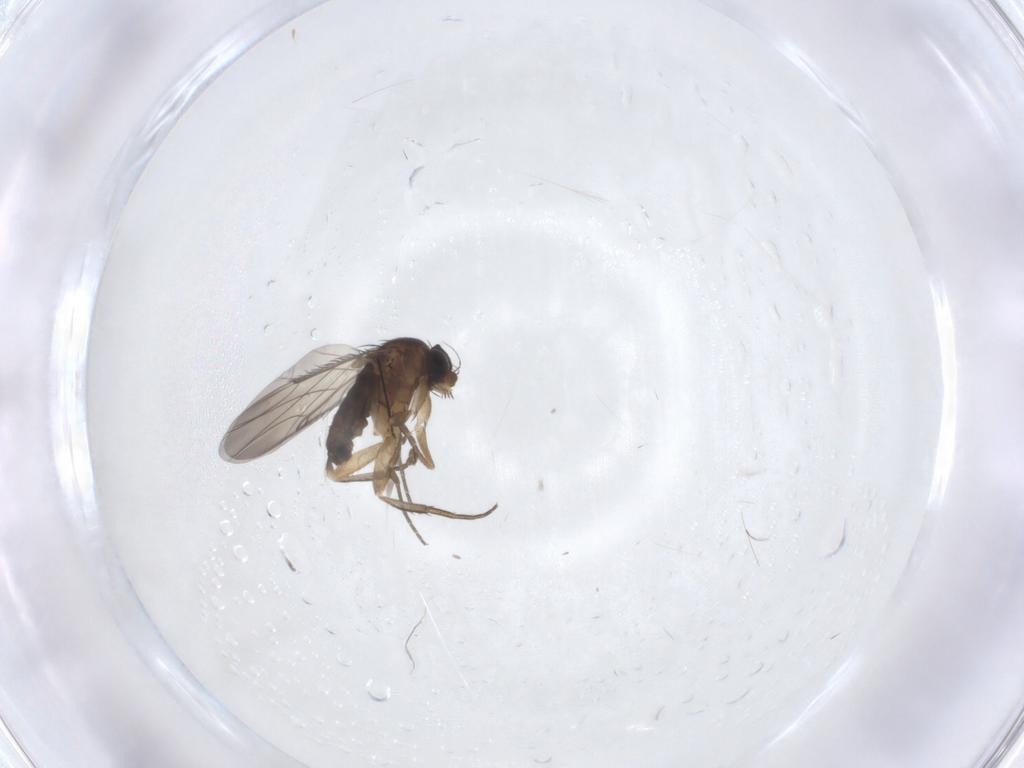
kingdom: Animalia
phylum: Arthropoda
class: Insecta
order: Diptera
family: Phoridae
